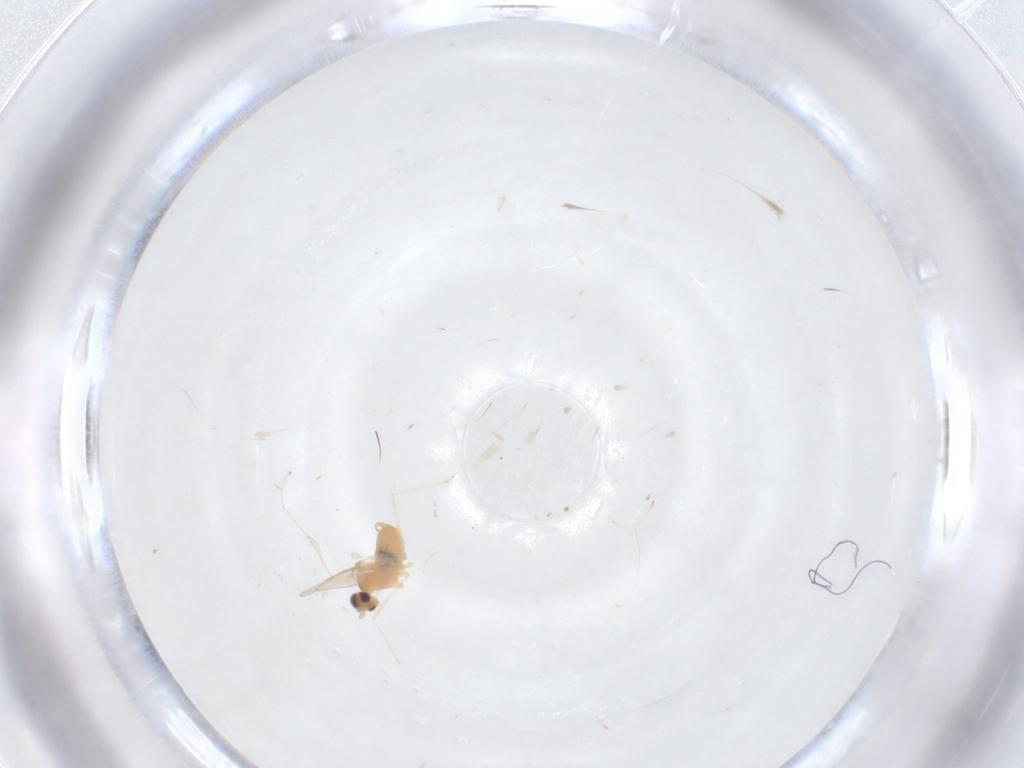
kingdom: Animalia
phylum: Arthropoda
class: Insecta
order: Diptera
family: Cecidomyiidae
